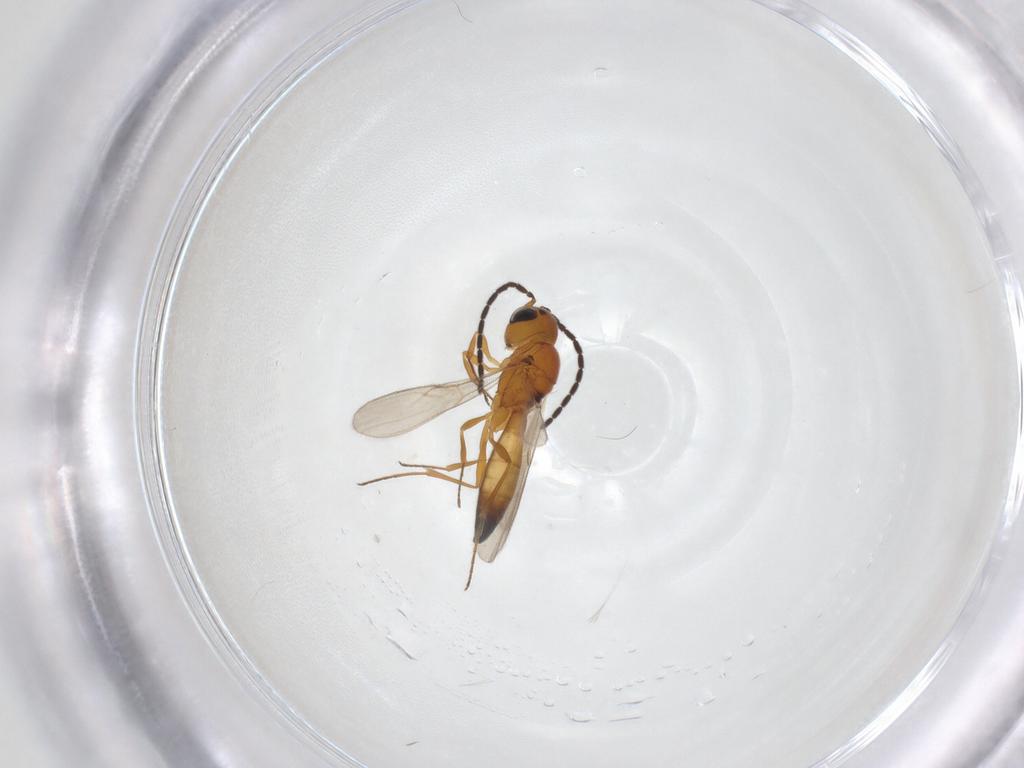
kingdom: Animalia
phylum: Arthropoda
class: Insecta
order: Hymenoptera
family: Scelionidae
